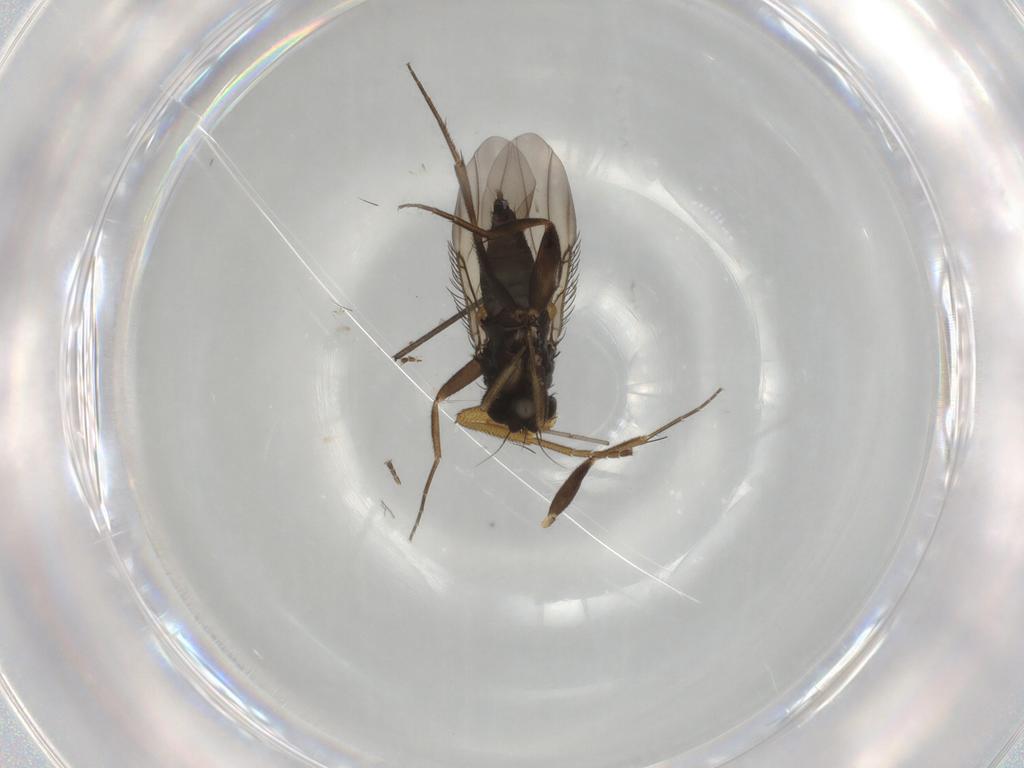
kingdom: Animalia
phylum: Arthropoda
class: Insecta
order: Diptera
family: Phoridae
